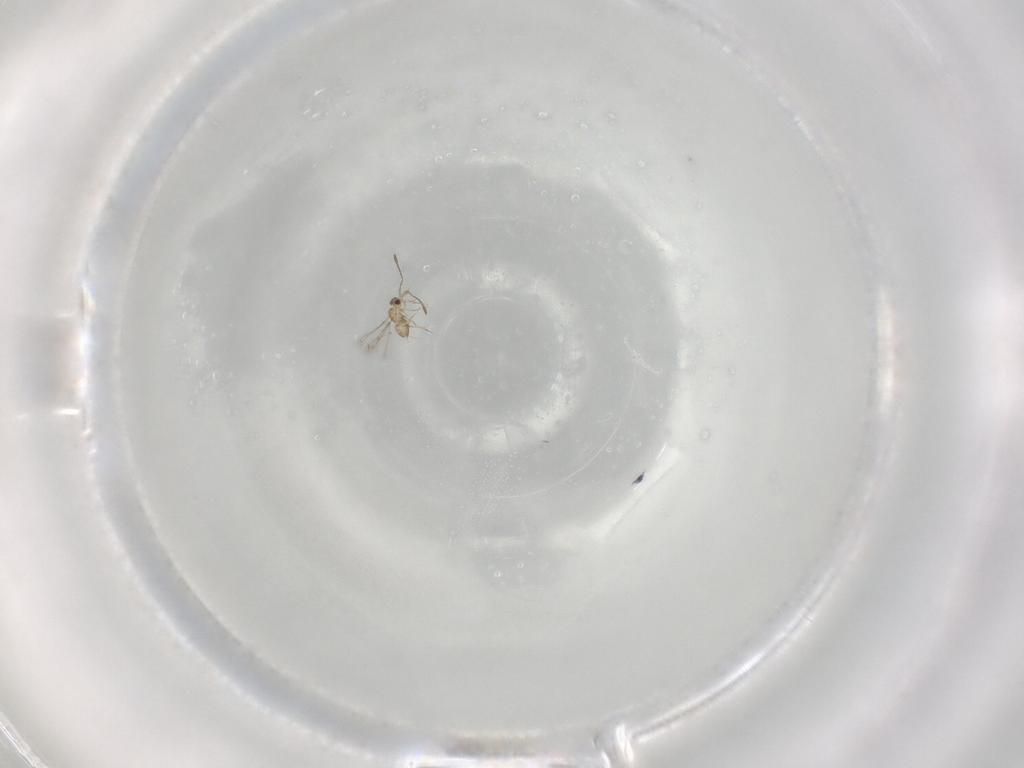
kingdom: Animalia
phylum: Arthropoda
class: Insecta
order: Hymenoptera
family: Mymaridae
